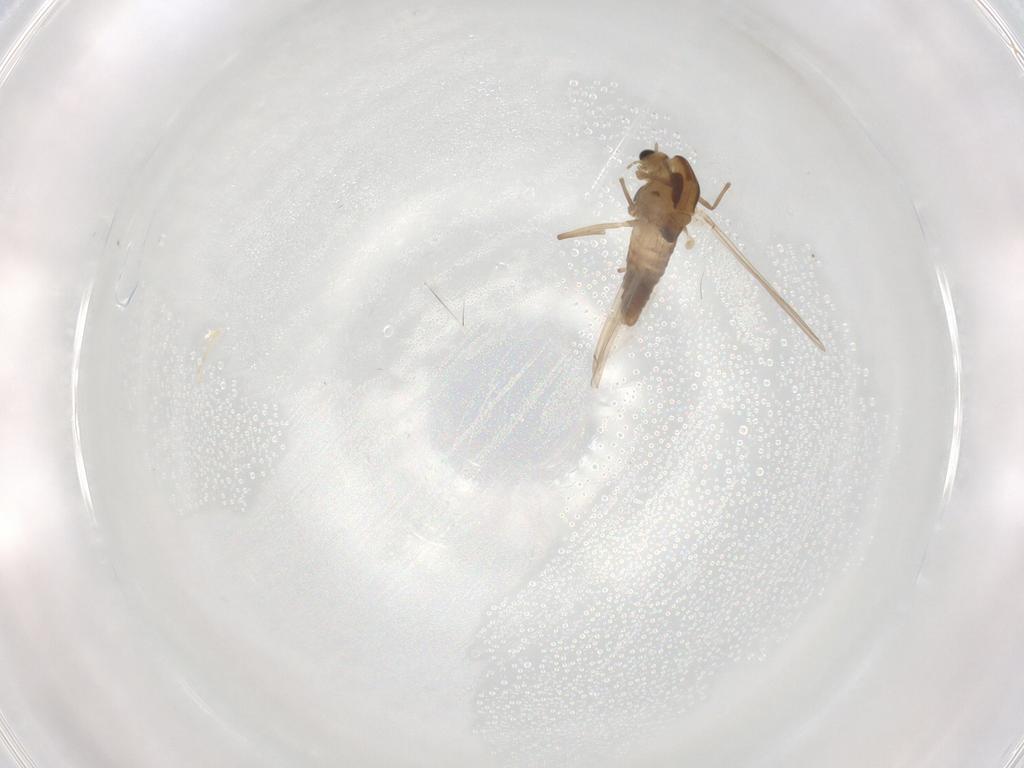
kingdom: Animalia
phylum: Arthropoda
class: Insecta
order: Diptera
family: Chironomidae
